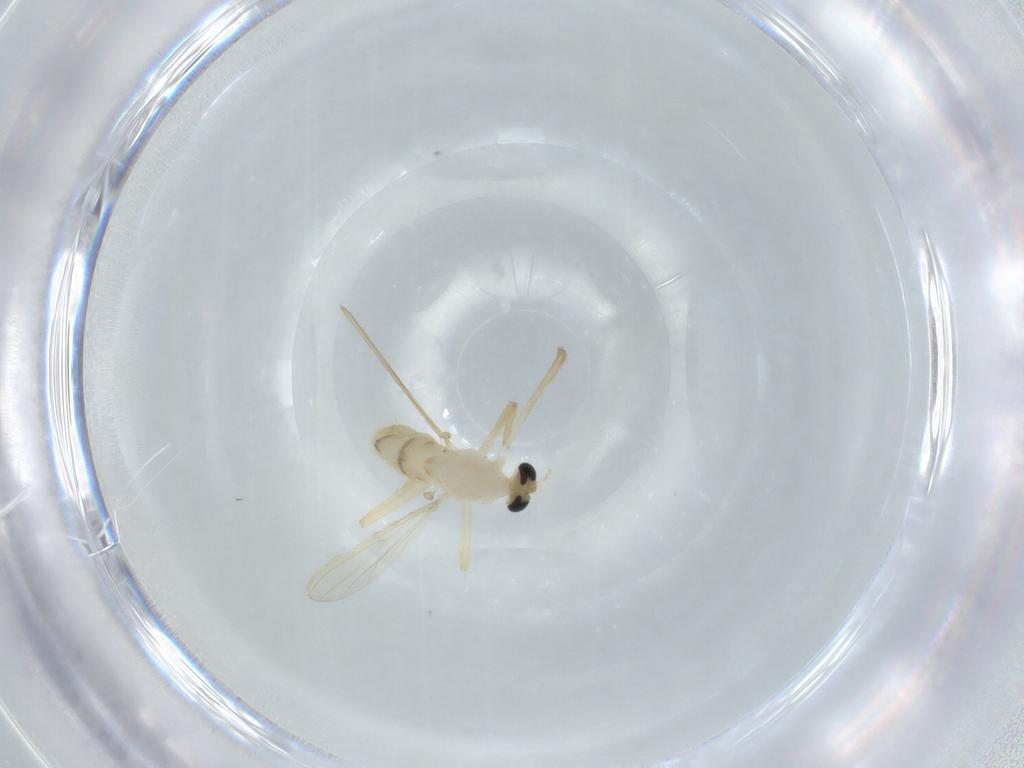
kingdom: Animalia
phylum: Arthropoda
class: Insecta
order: Diptera
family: Chironomidae
